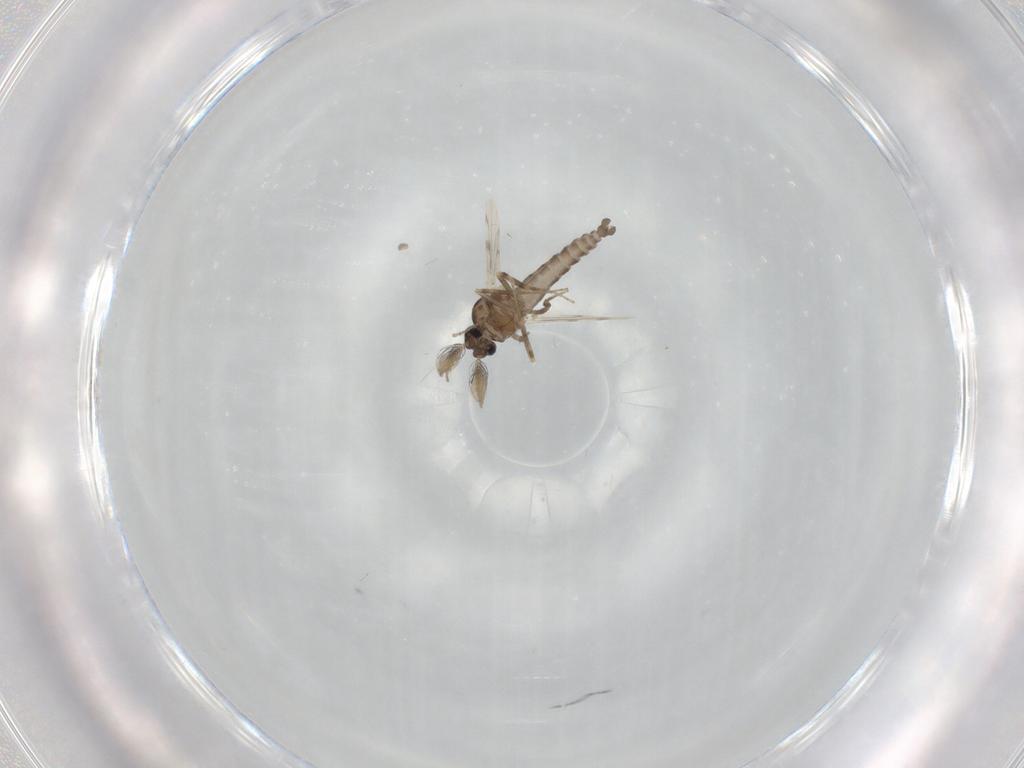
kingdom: Animalia
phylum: Arthropoda
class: Insecta
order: Diptera
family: Ceratopogonidae
